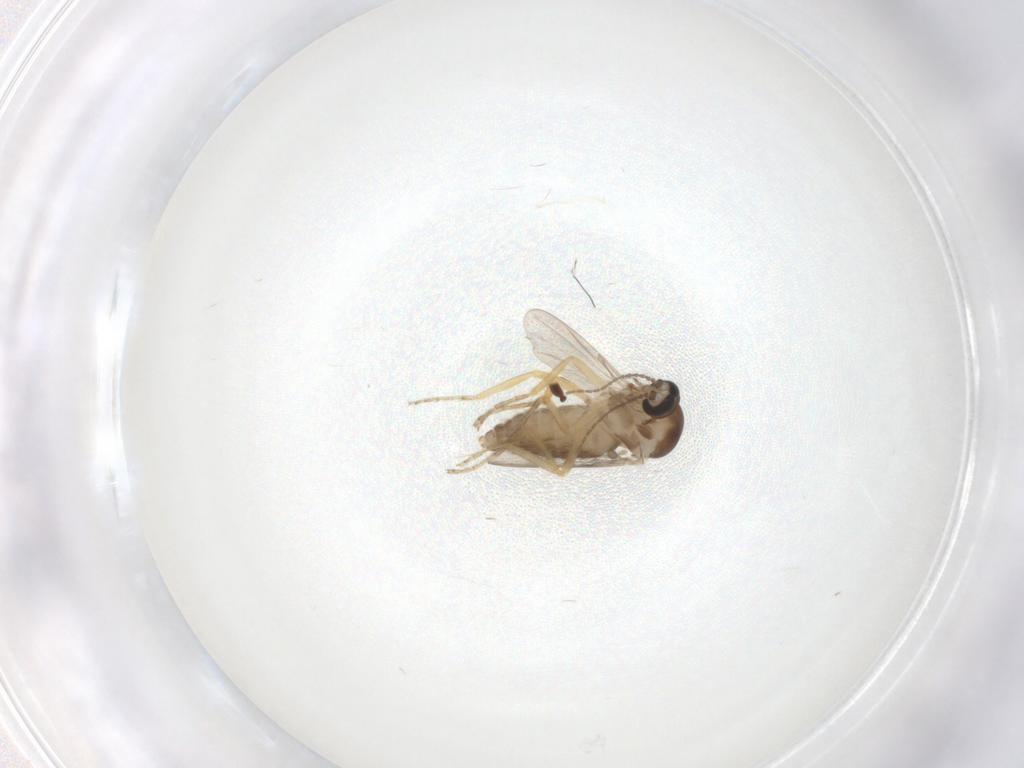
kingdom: Animalia
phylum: Arthropoda
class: Insecta
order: Diptera
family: Ceratopogonidae
